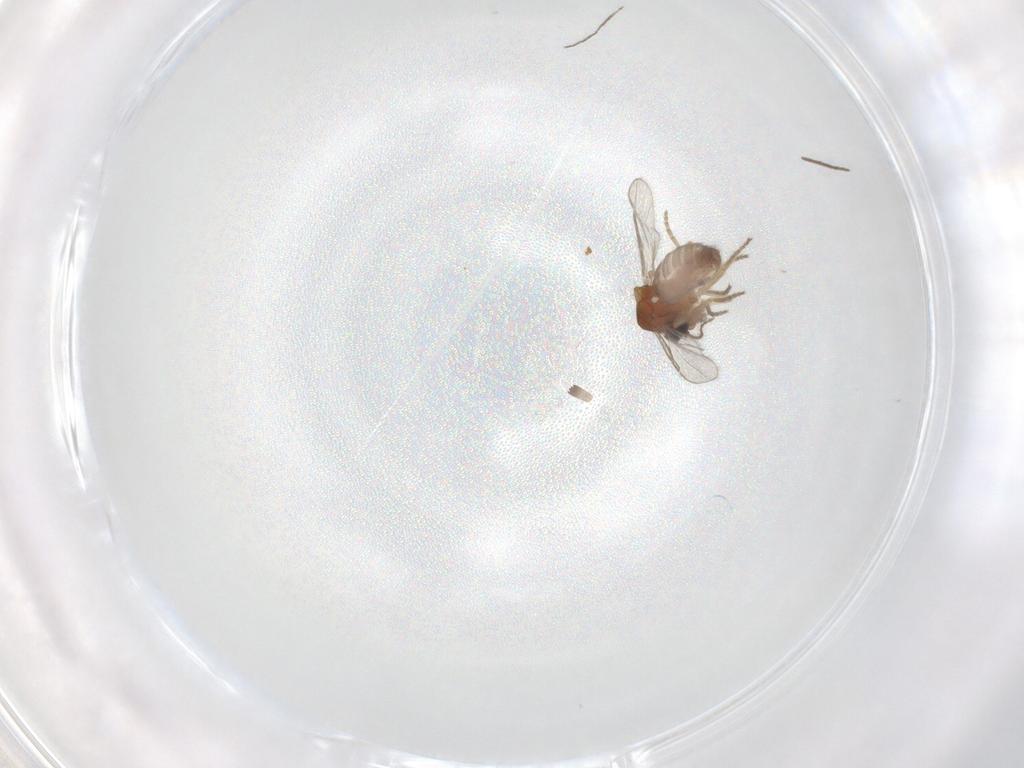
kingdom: Animalia
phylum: Arthropoda
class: Insecta
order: Diptera
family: Ceratopogonidae
